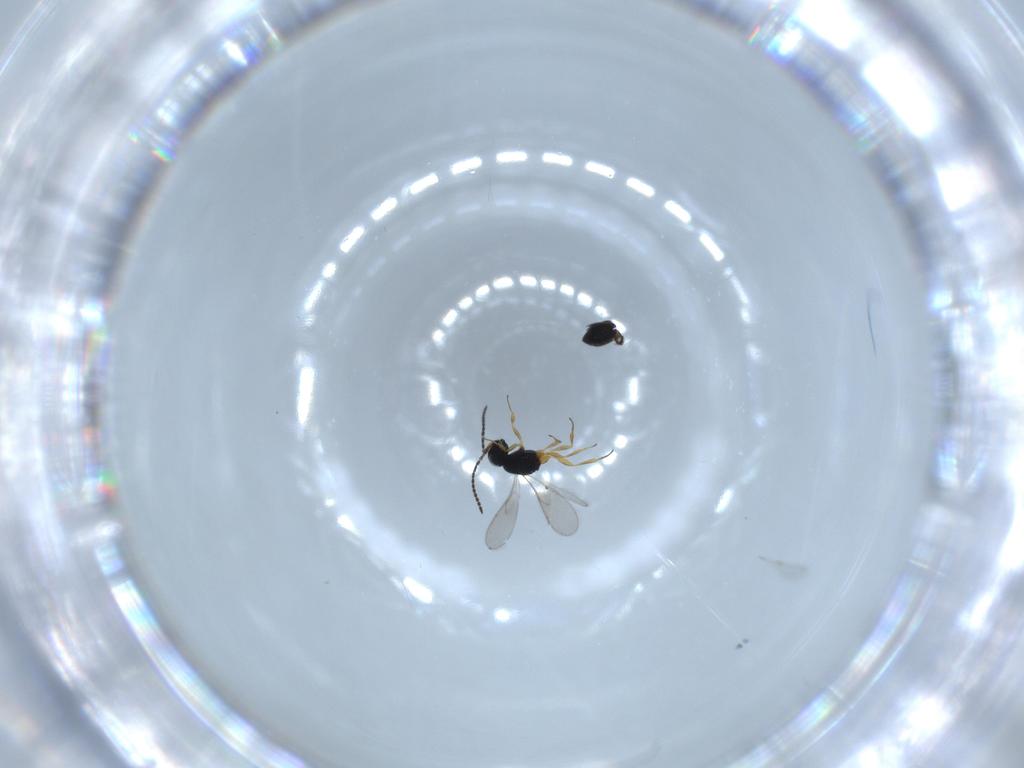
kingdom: Animalia
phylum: Arthropoda
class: Insecta
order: Hymenoptera
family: Scelionidae
